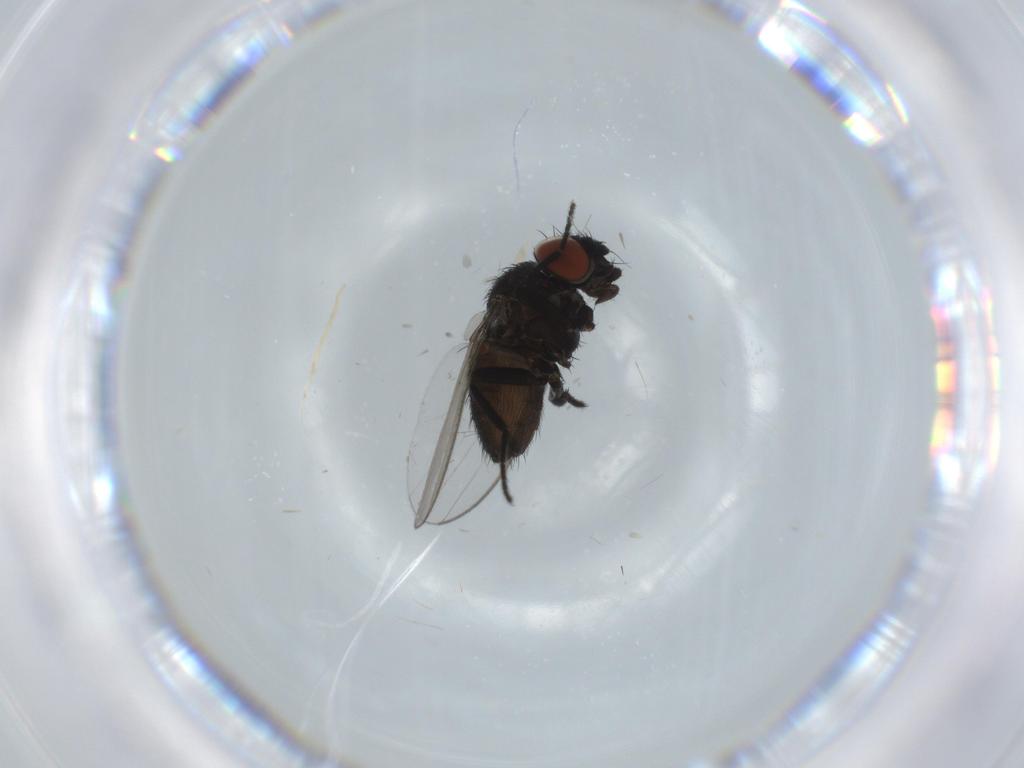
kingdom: Animalia
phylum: Arthropoda
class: Insecta
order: Diptera
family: Milichiidae
